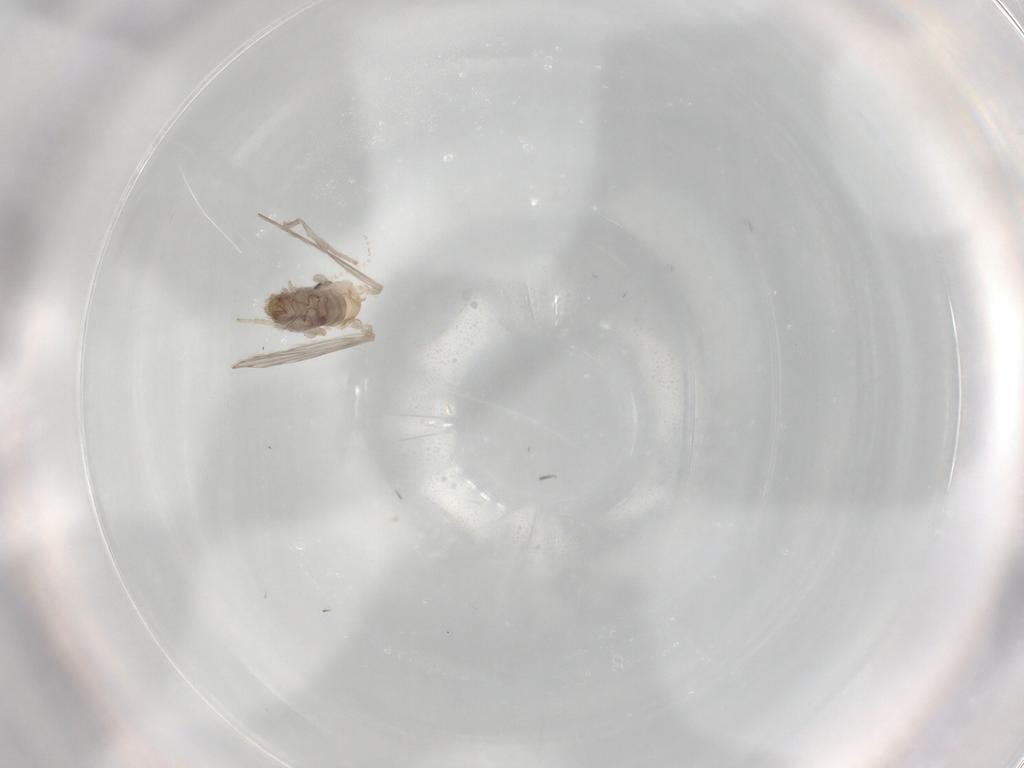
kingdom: Animalia
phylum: Arthropoda
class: Insecta
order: Diptera
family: Psychodidae
